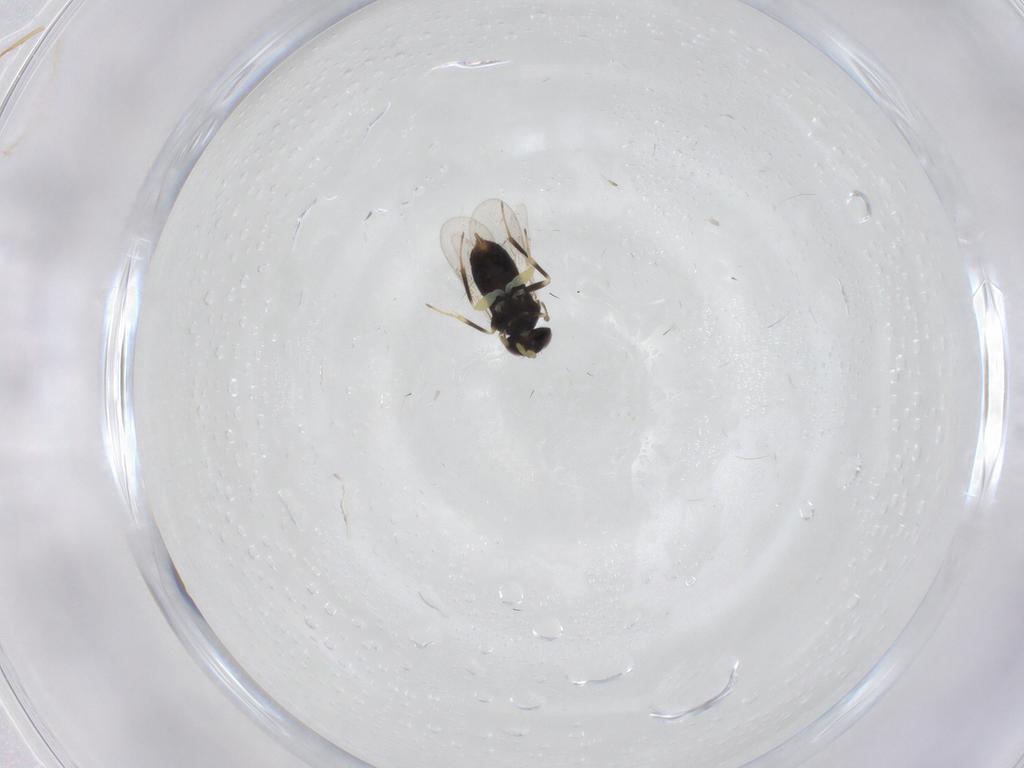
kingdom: Animalia
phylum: Arthropoda
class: Insecta
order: Hymenoptera
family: Aphelinidae
